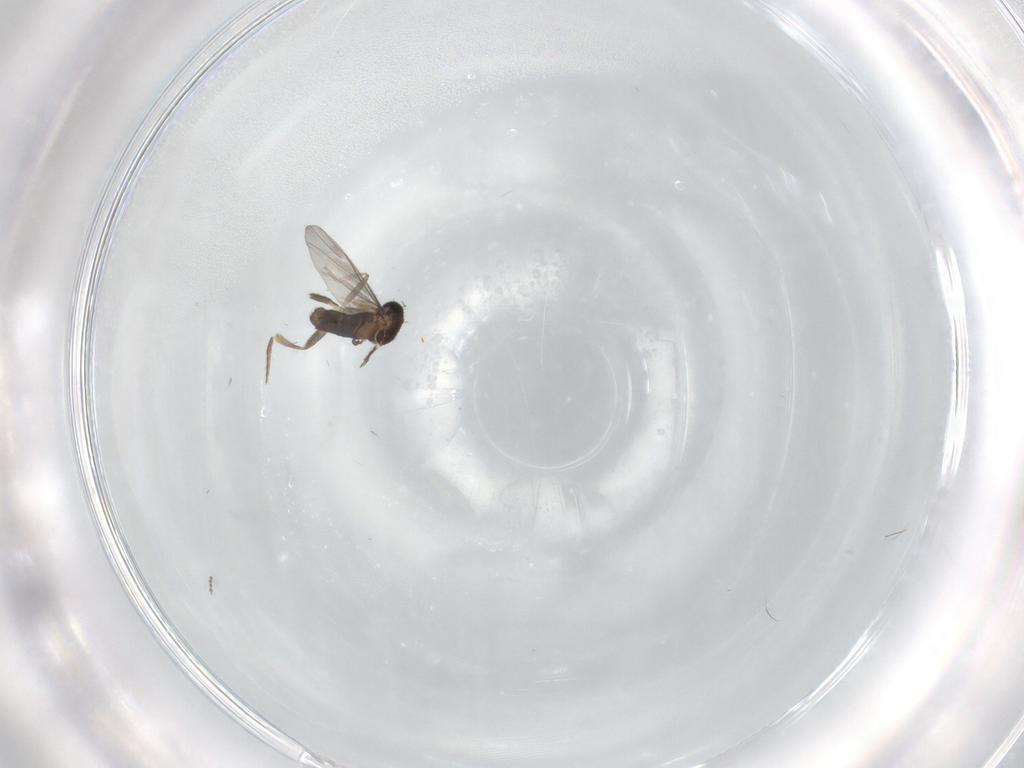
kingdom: Animalia
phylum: Arthropoda
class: Insecta
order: Diptera
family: Cecidomyiidae
